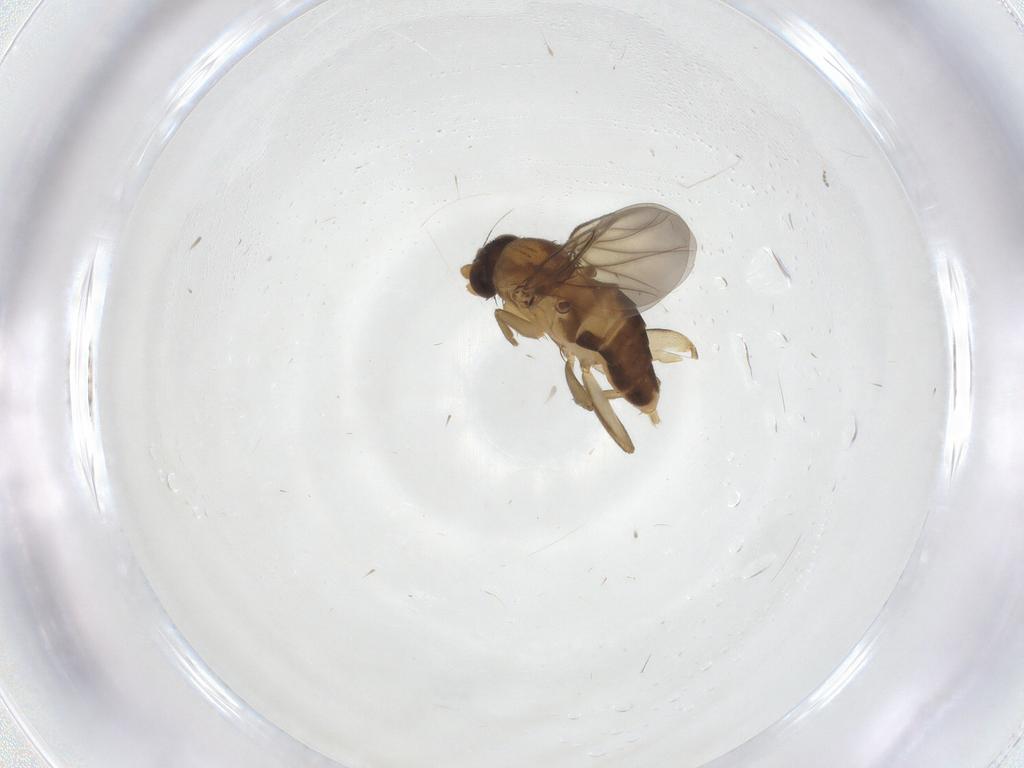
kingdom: Animalia
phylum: Arthropoda
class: Insecta
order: Diptera
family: Phoridae
